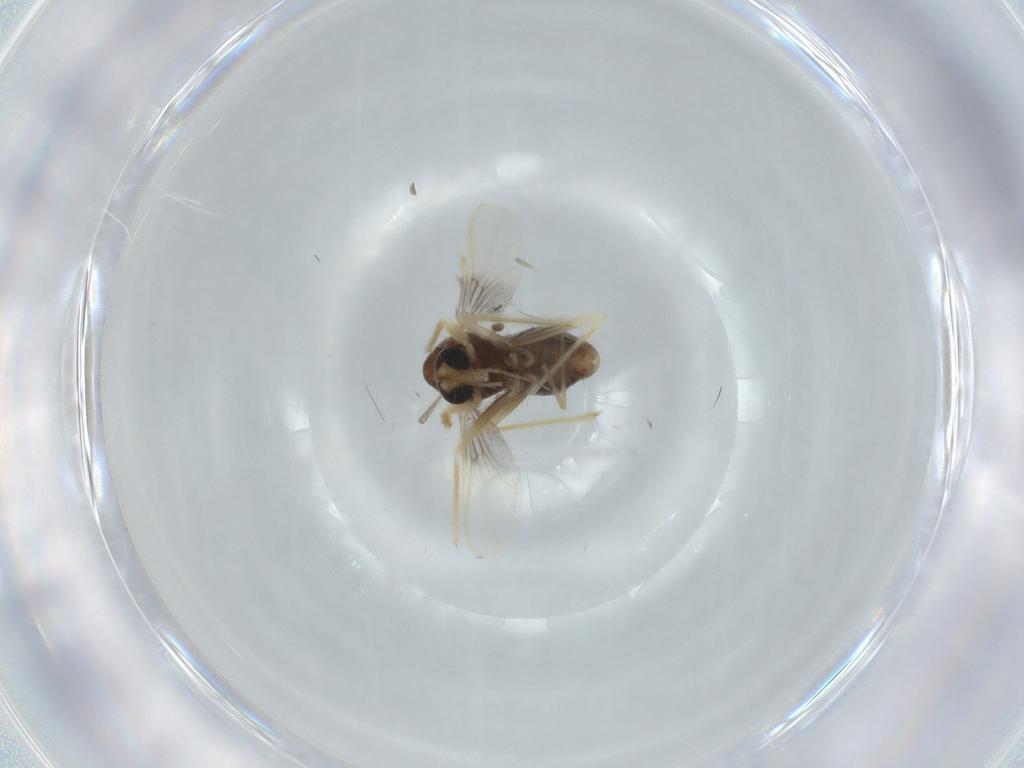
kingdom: Animalia
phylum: Arthropoda
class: Insecta
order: Diptera
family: Chironomidae
